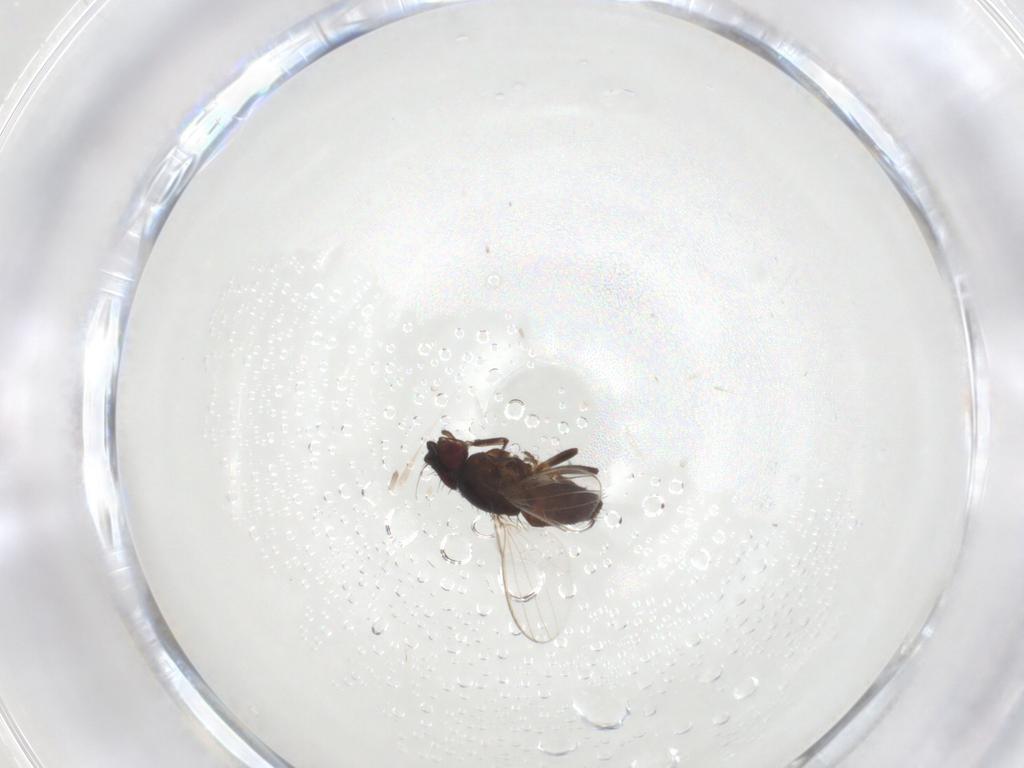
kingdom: Animalia
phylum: Arthropoda
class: Insecta
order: Diptera
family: Milichiidae
